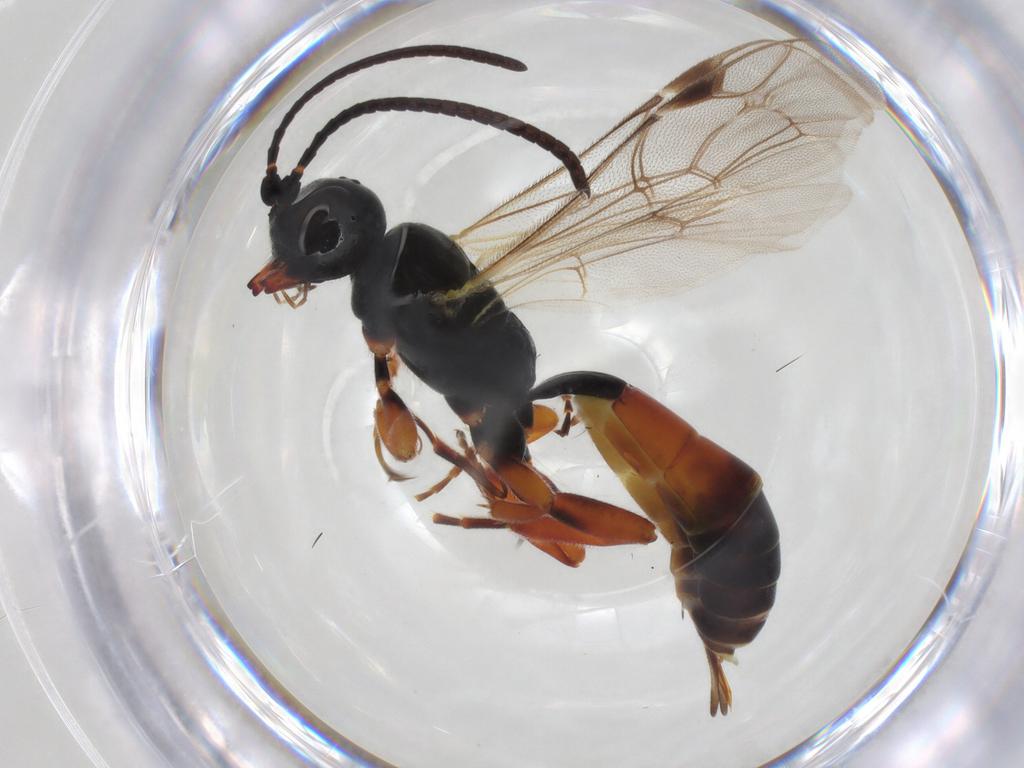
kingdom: Animalia
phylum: Arthropoda
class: Insecta
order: Hymenoptera
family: Ichneumonidae
